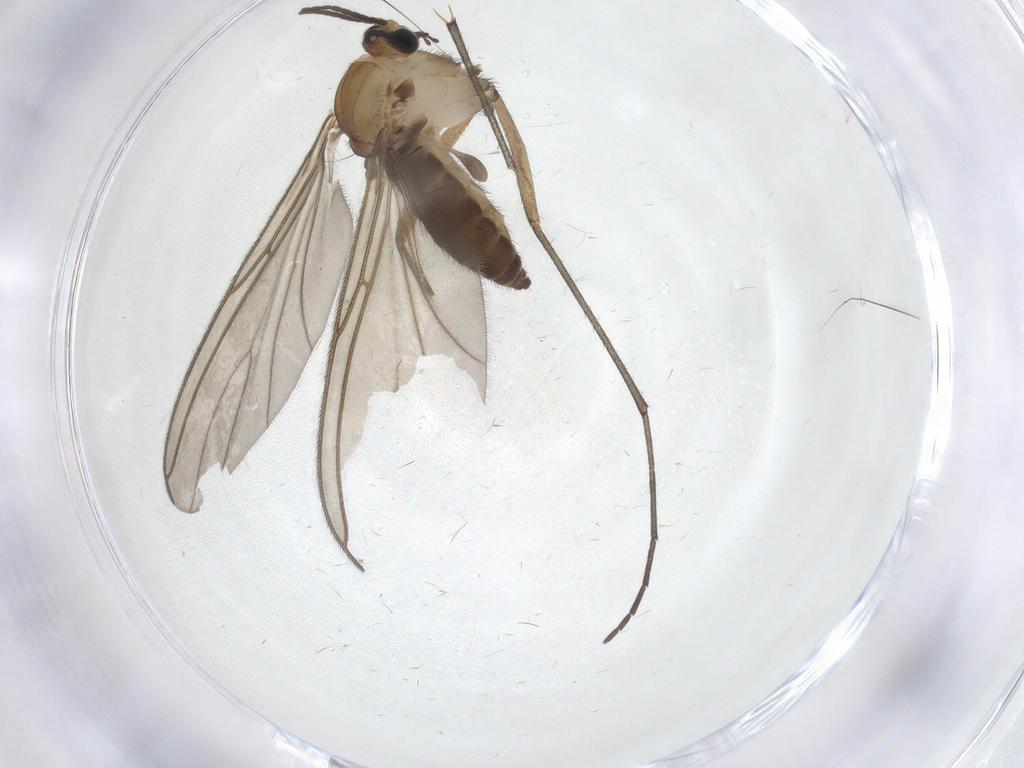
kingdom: Animalia
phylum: Arthropoda
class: Insecta
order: Diptera
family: Sciaridae
